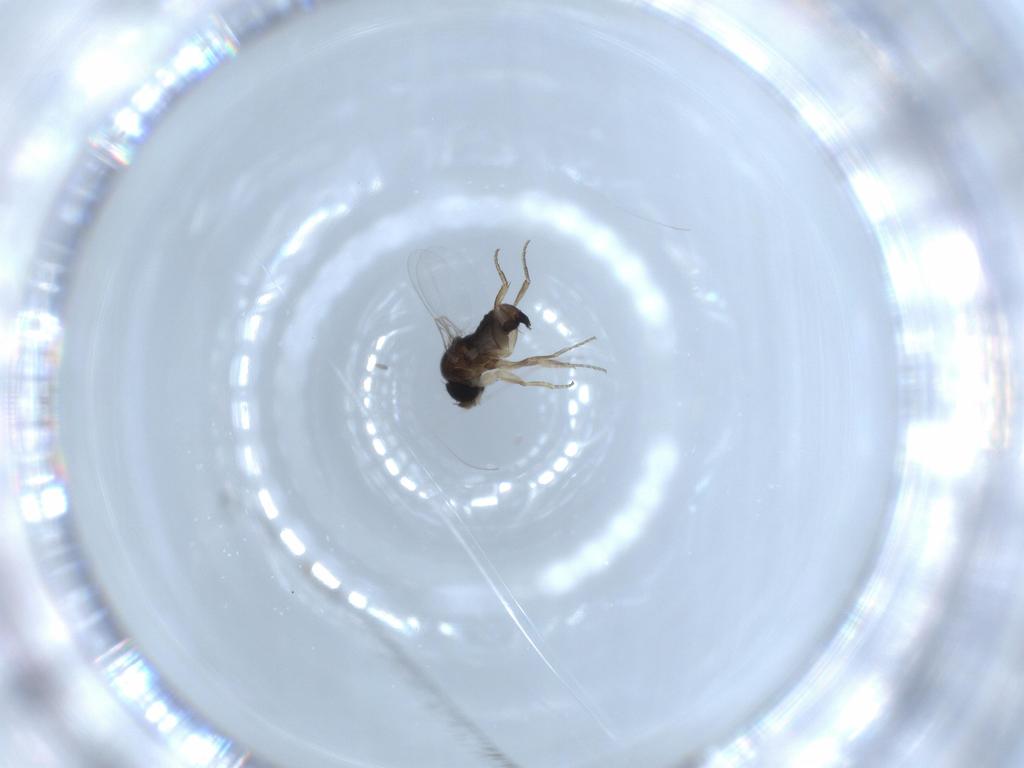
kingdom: Animalia
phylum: Arthropoda
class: Insecta
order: Diptera
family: Phoridae
